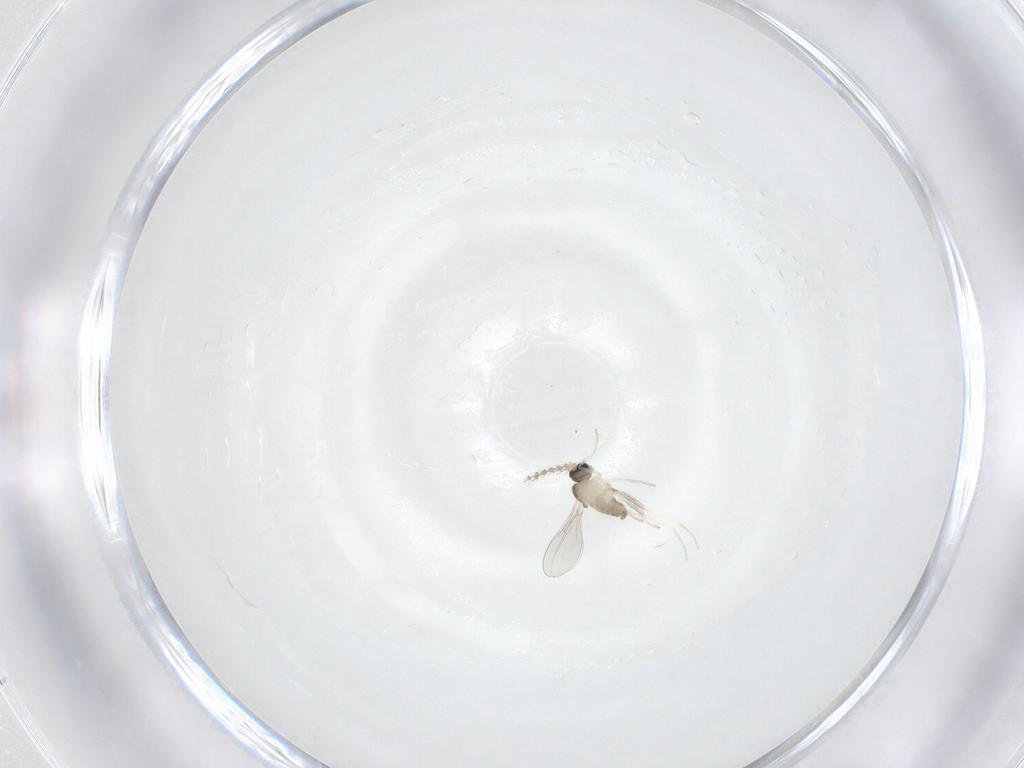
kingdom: Animalia
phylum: Arthropoda
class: Insecta
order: Diptera
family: Cecidomyiidae
